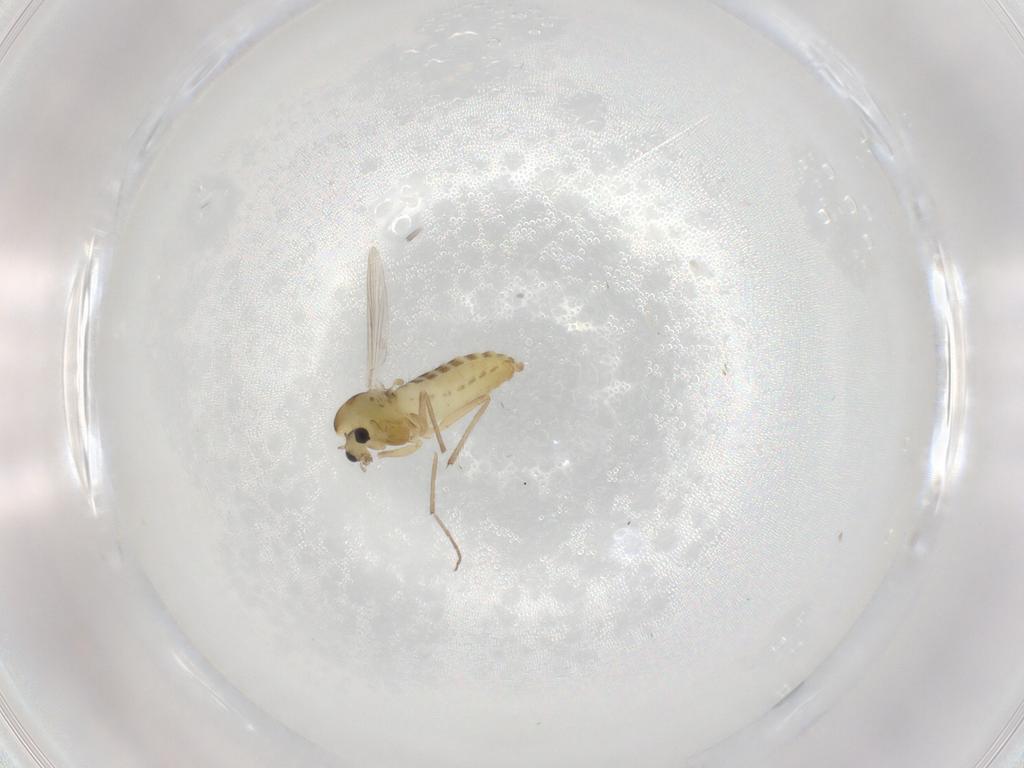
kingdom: Animalia
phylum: Arthropoda
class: Insecta
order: Diptera
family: Chironomidae
